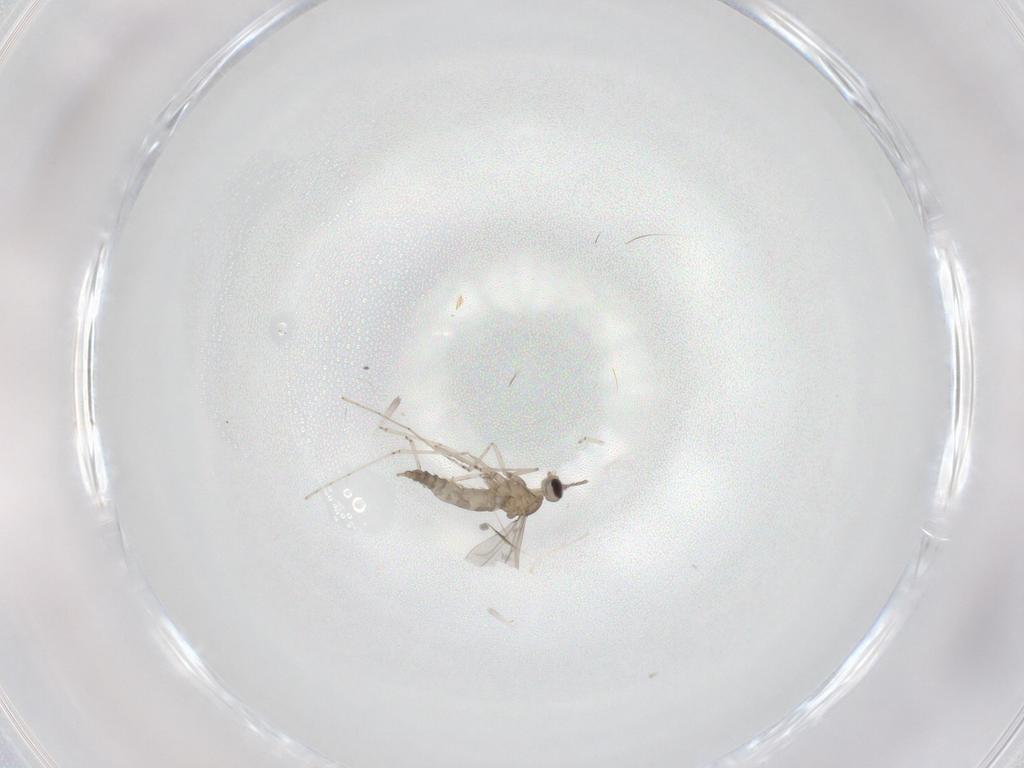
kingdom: Animalia
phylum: Arthropoda
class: Insecta
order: Diptera
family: Cecidomyiidae
